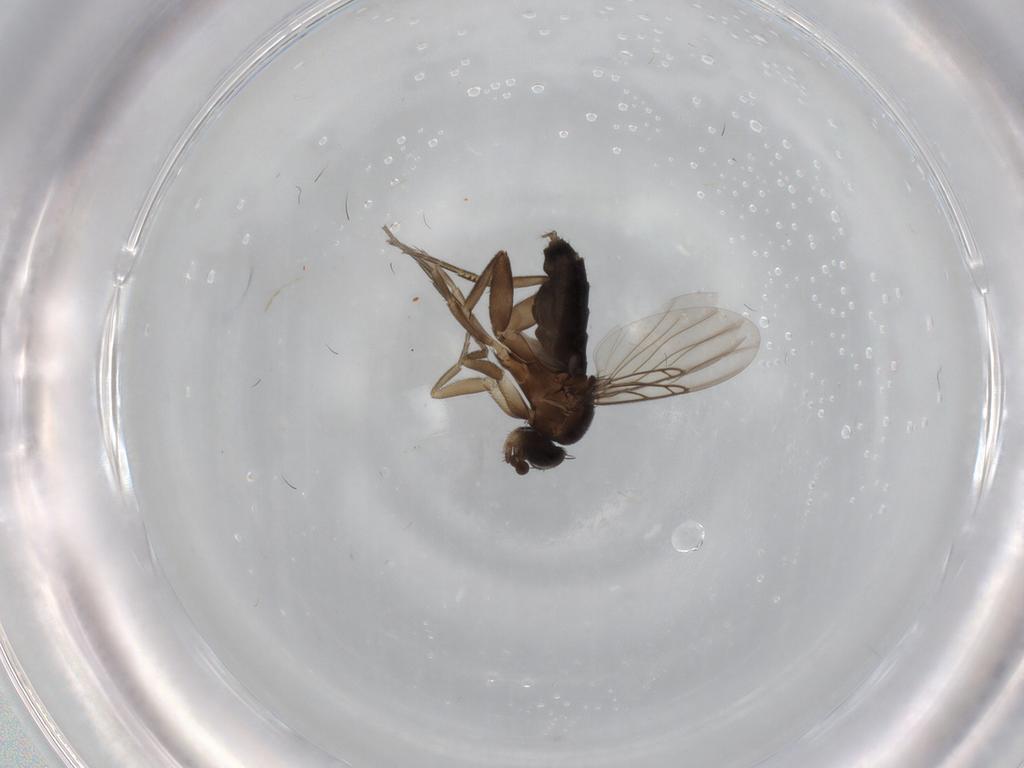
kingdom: Animalia
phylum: Arthropoda
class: Insecta
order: Diptera
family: Phoridae
